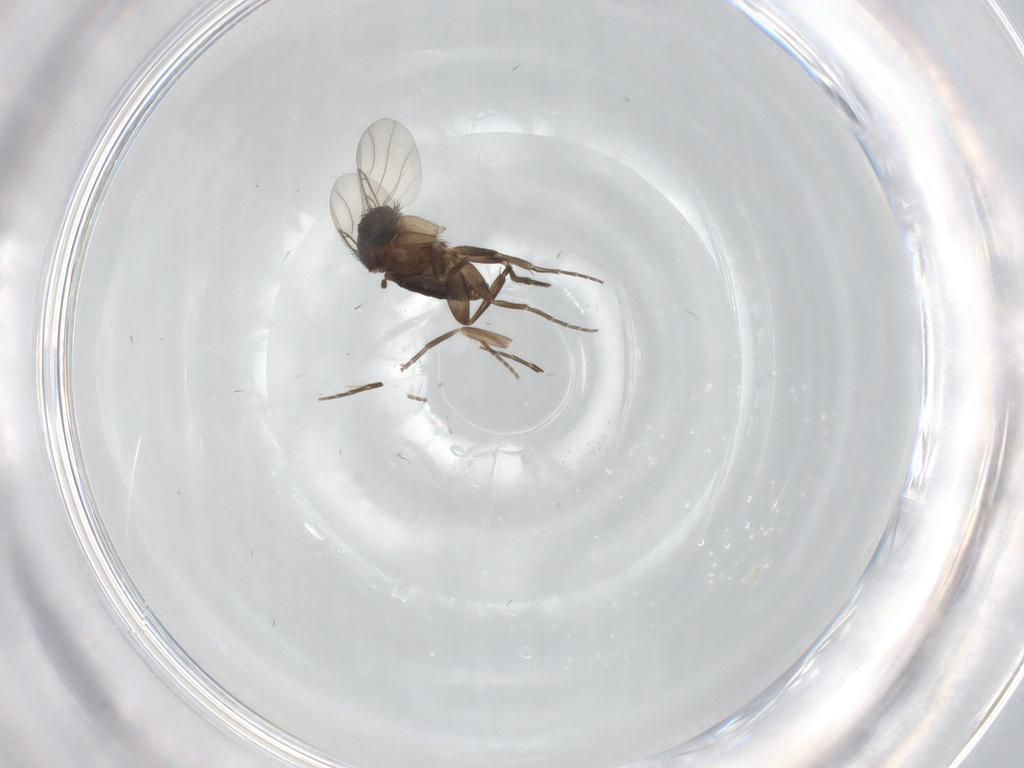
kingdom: Animalia
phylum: Arthropoda
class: Insecta
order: Diptera
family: Phoridae
